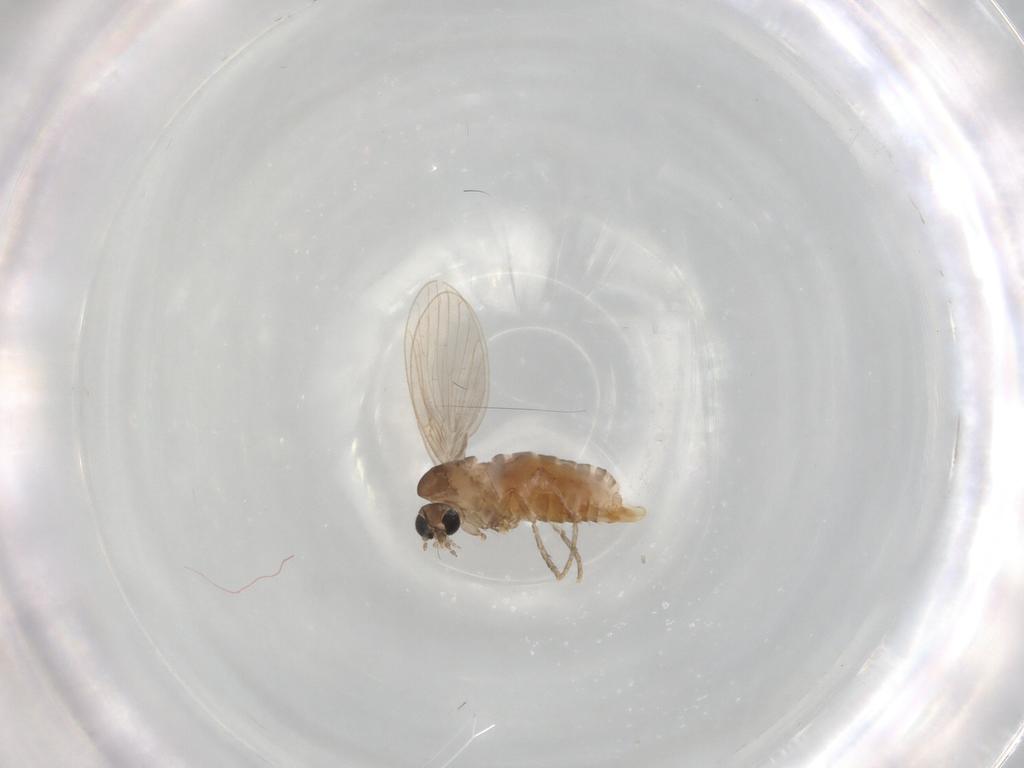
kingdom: Animalia
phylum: Arthropoda
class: Insecta
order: Diptera
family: Psychodidae
